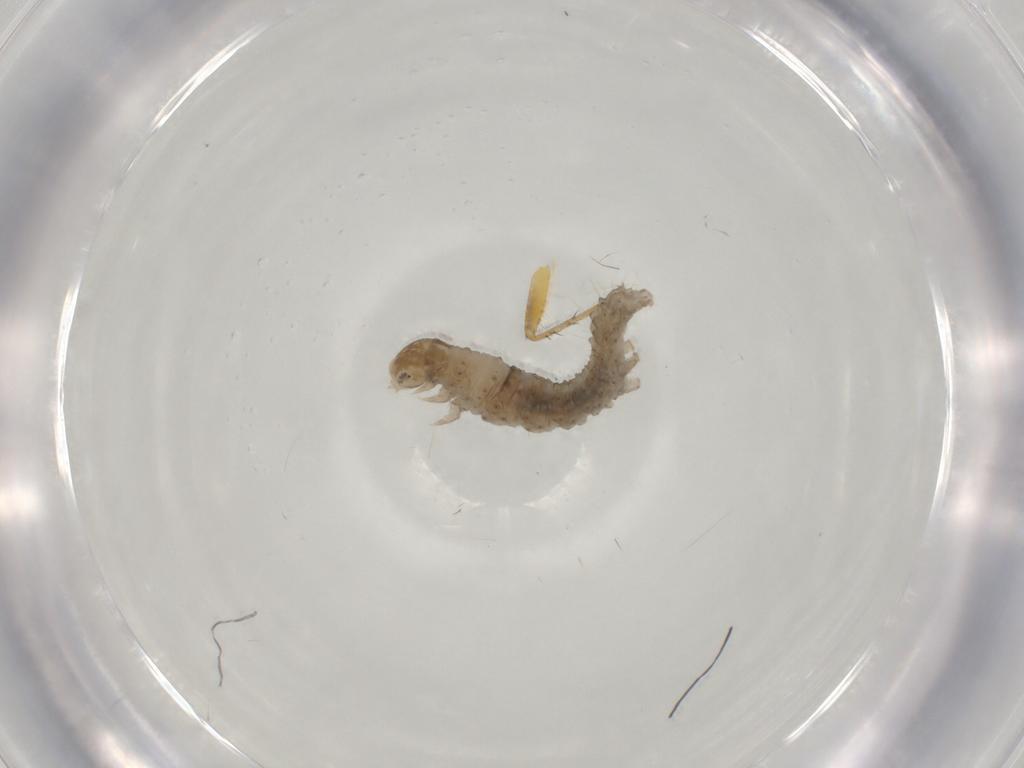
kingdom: Animalia
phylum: Arthropoda
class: Insecta
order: Lepidoptera
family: Erebidae
